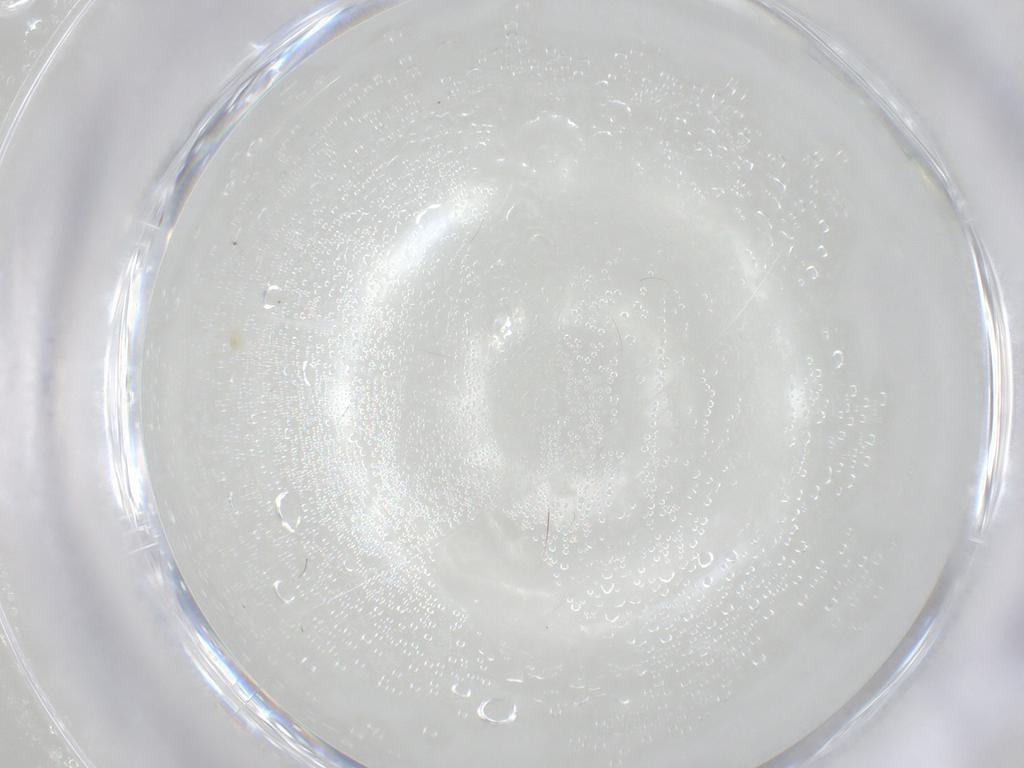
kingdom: Animalia
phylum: Arthropoda
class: Arachnida
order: Trombidiformes
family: Erythraeidae
